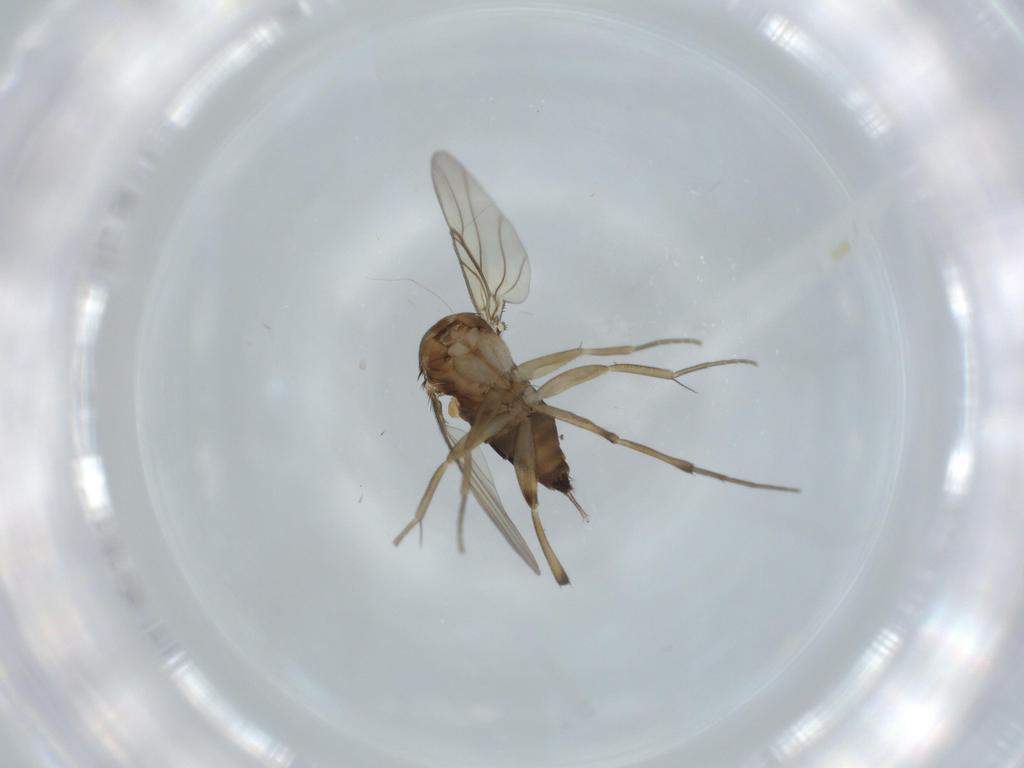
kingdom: Animalia
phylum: Arthropoda
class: Insecta
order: Diptera
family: Phoridae
